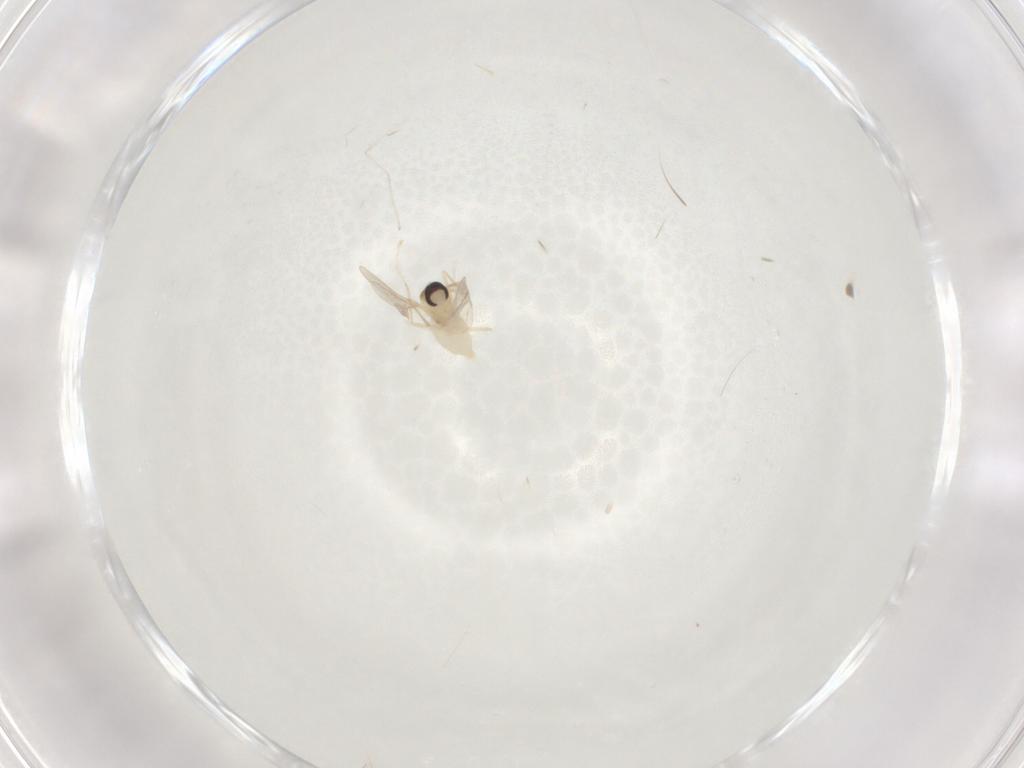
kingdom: Animalia
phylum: Arthropoda
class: Insecta
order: Diptera
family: Cecidomyiidae
